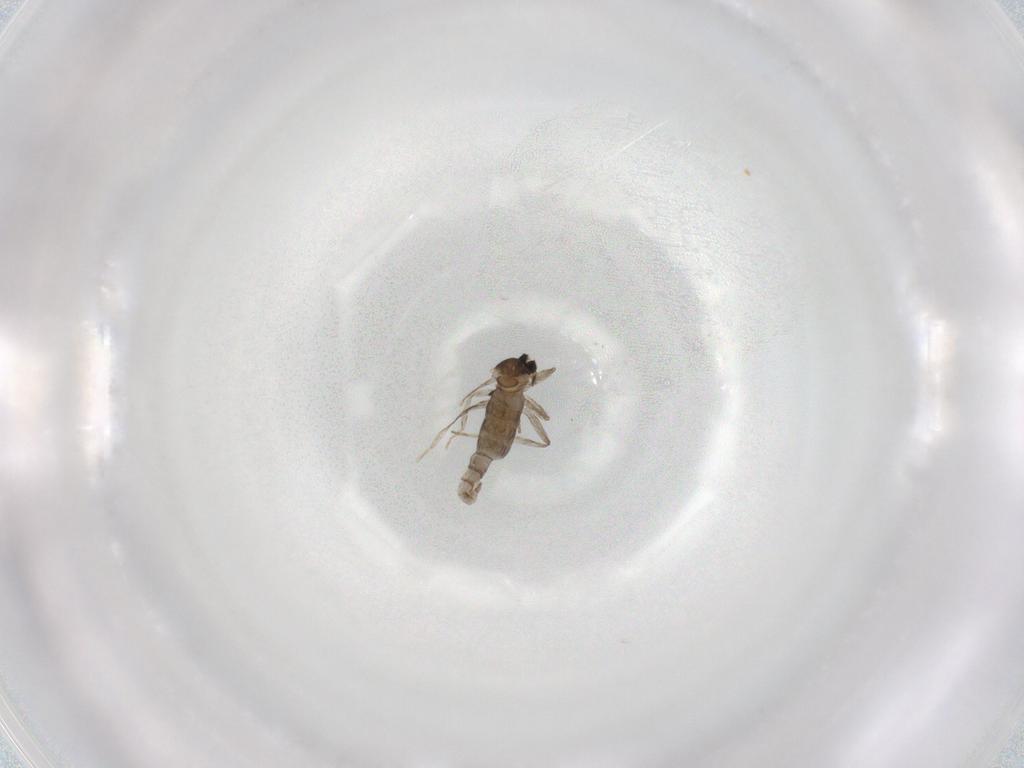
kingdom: Animalia
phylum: Arthropoda
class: Insecta
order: Diptera
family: Cecidomyiidae
